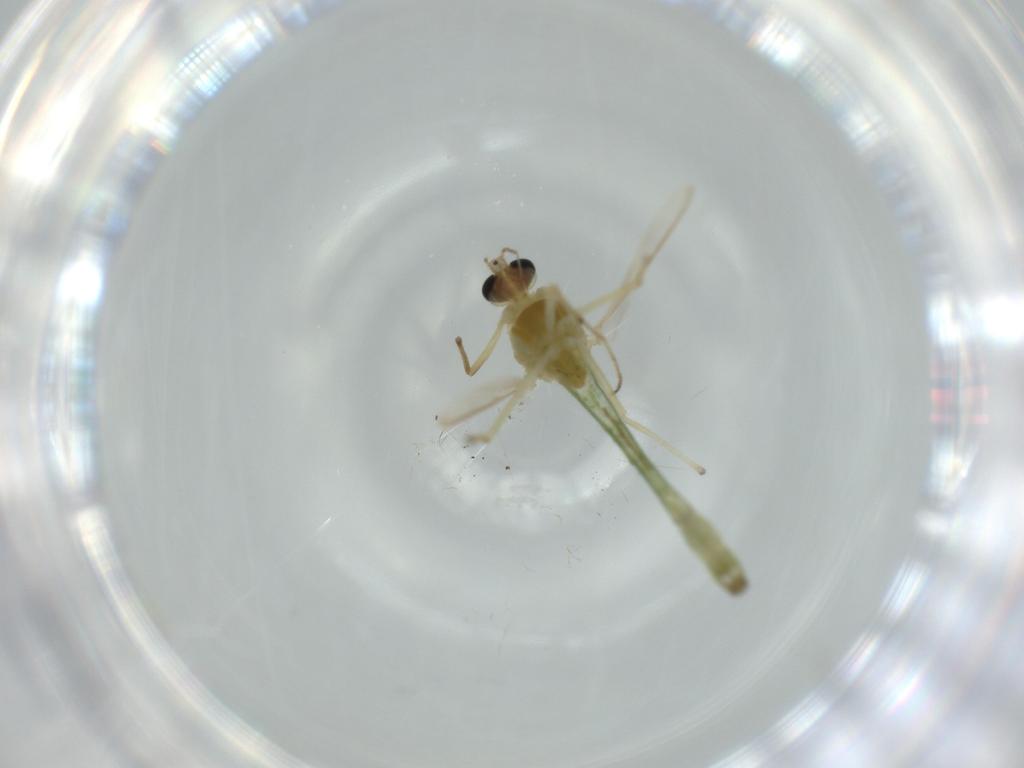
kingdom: Animalia
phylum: Arthropoda
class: Insecta
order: Diptera
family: Chironomidae
